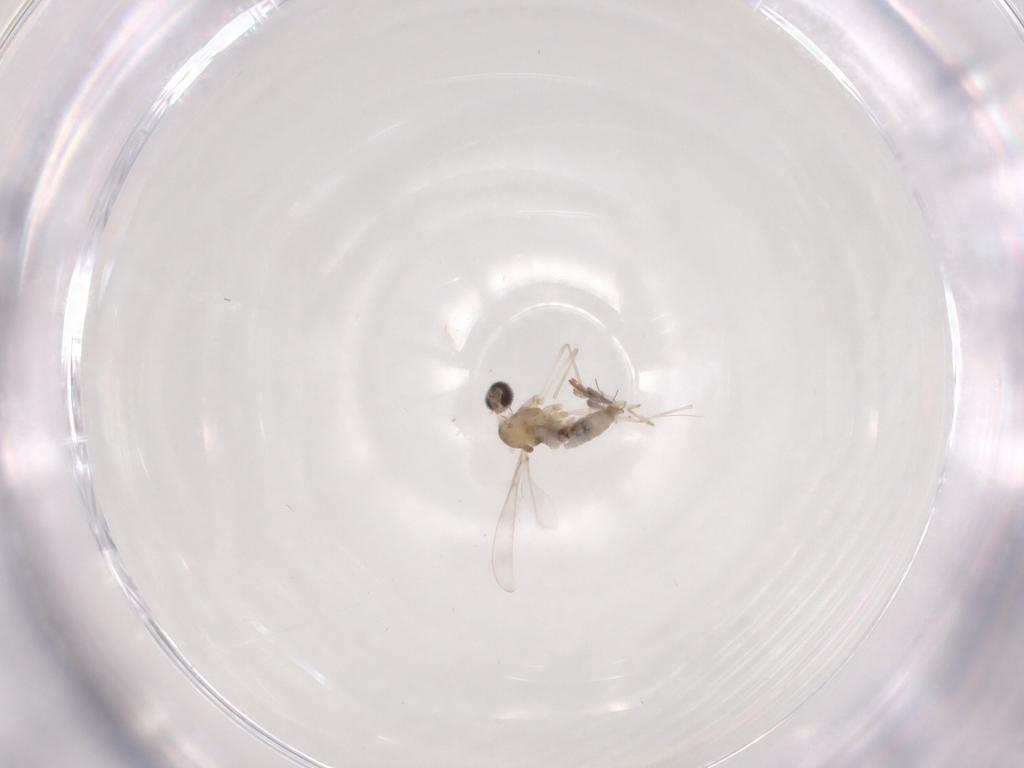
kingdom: Animalia
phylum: Arthropoda
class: Insecta
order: Diptera
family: Cecidomyiidae
